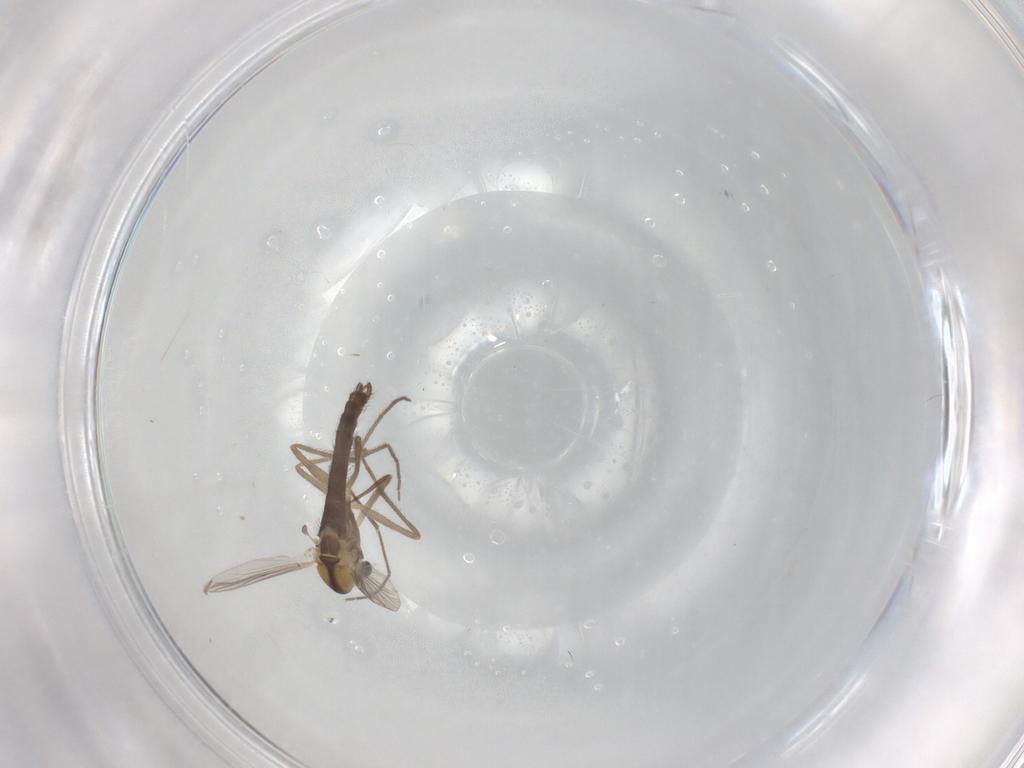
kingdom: Animalia
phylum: Arthropoda
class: Insecta
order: Diptera
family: Chironomidae
